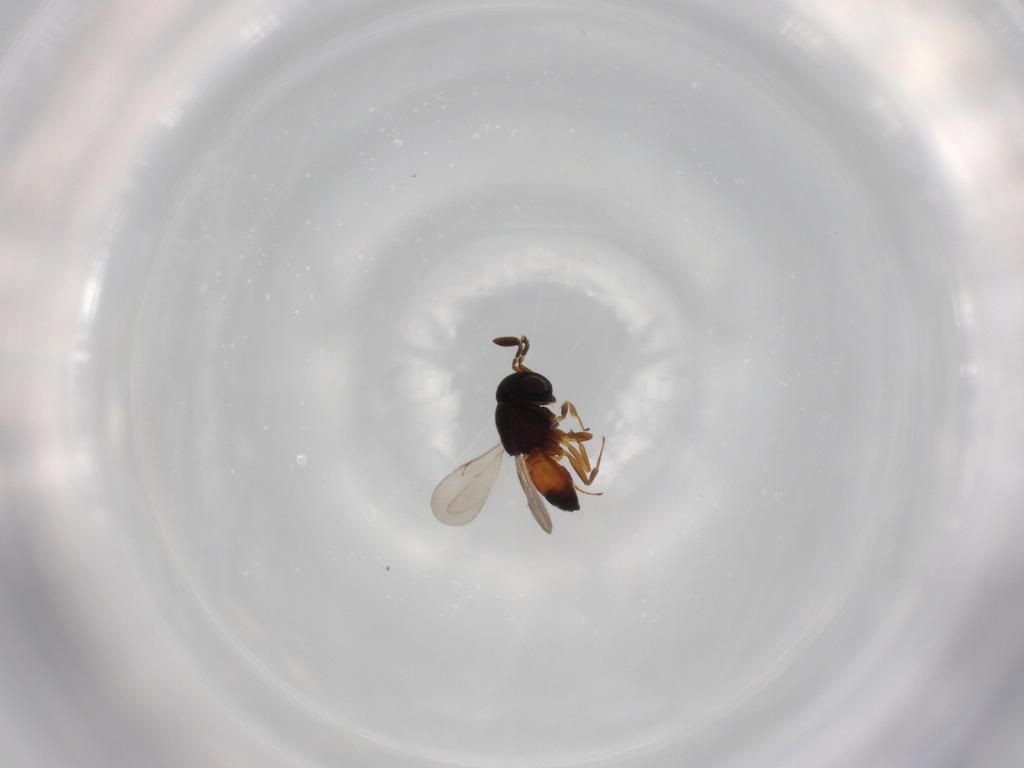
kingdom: Animalia
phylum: Arthropoda
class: Insecta
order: Hymenoptera
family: Scelionidae
